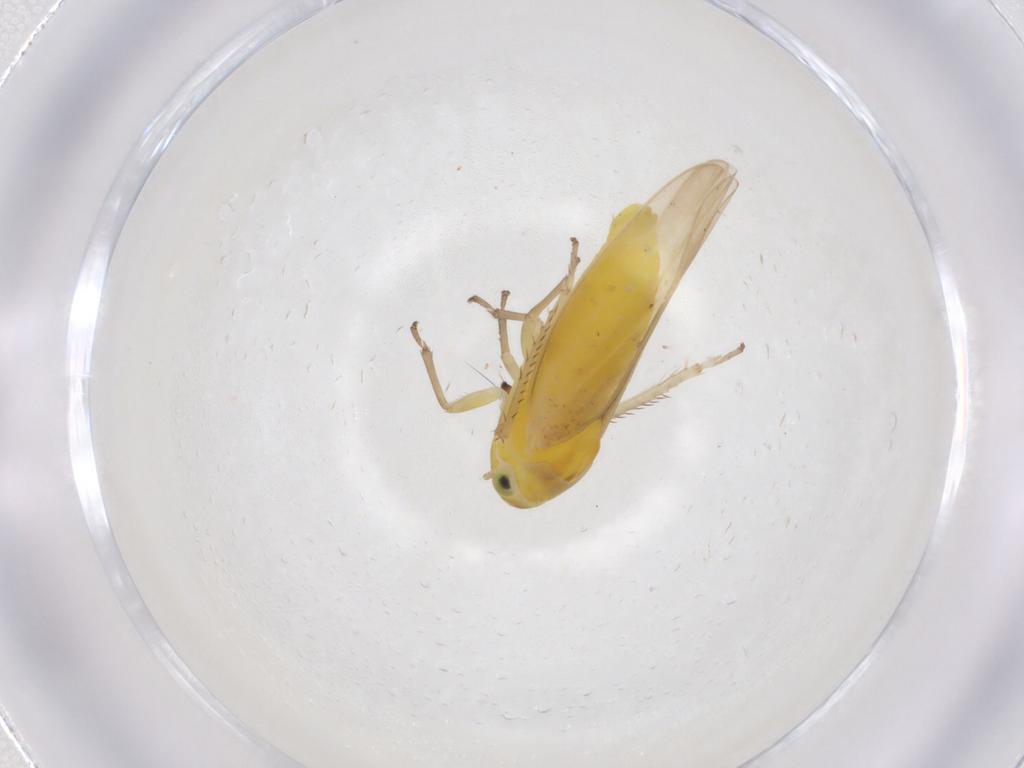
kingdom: Animalia
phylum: Arthropoda
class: Insecta
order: Hemiptera
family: Cicadellidae
